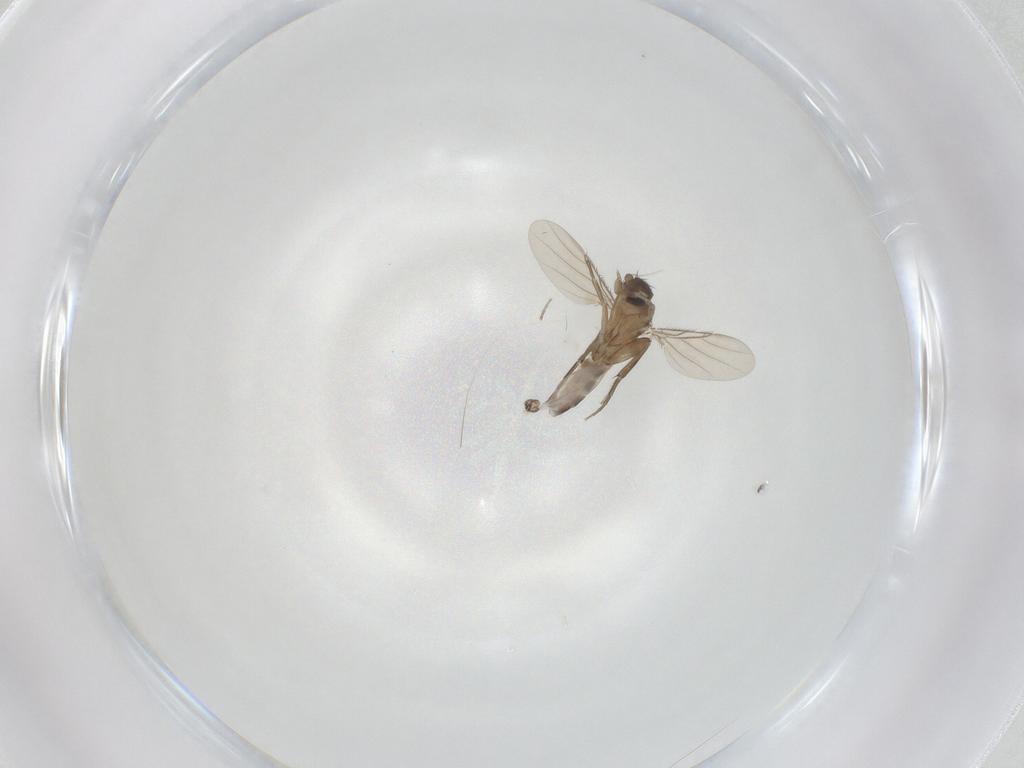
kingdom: Animalia
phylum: Arthropoda
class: Insecta
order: Diptera
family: Phoridae
